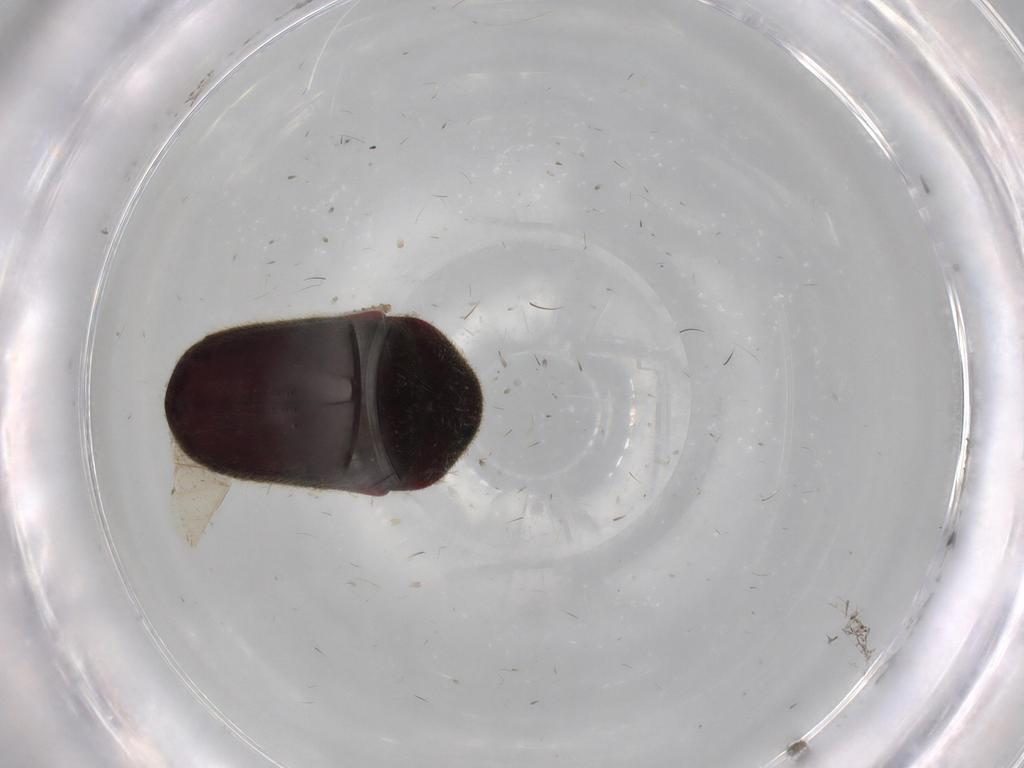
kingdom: Animalia
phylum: Arthropoda
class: Insecta
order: Coleoptera
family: Throscidae
